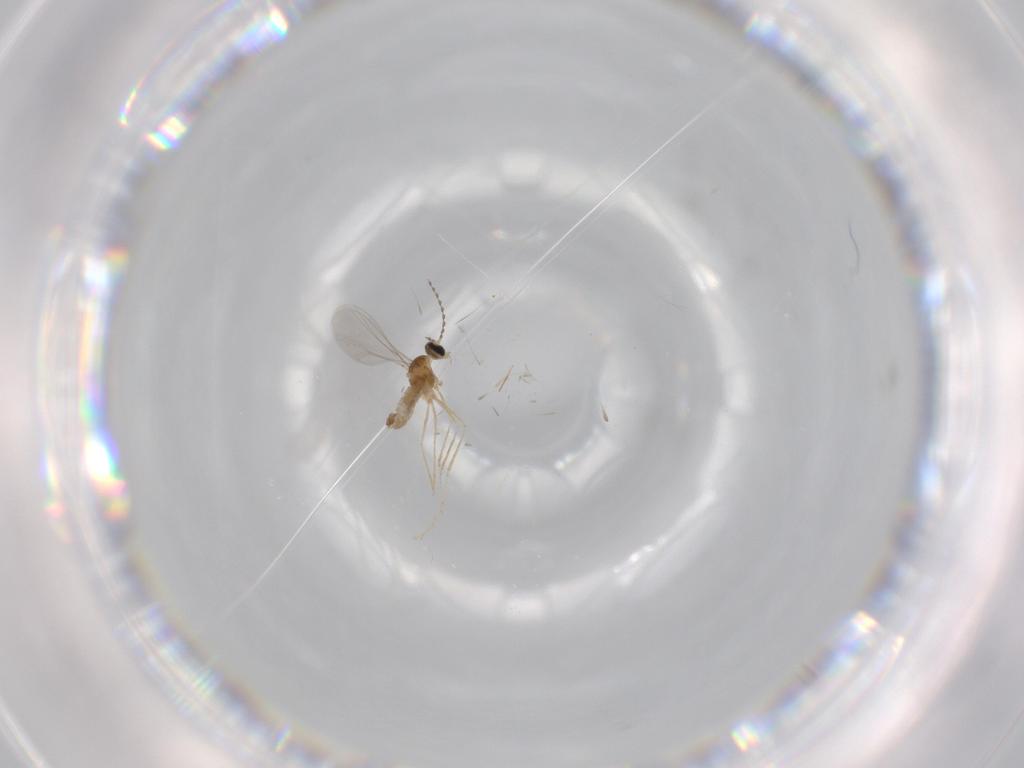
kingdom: Animalia
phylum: Arthropoda
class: Insecta
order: Diptera
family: Cecidomyiidae
